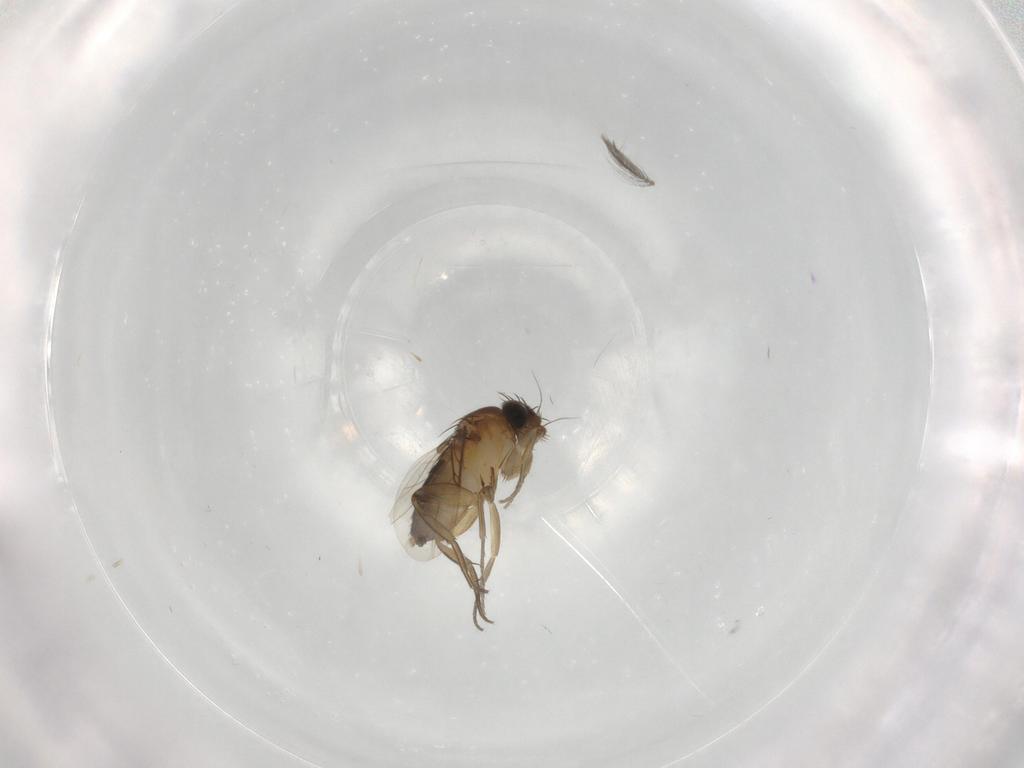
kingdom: Animalia
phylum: Arthropoda
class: Insecta
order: Diptera
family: Phoridae
